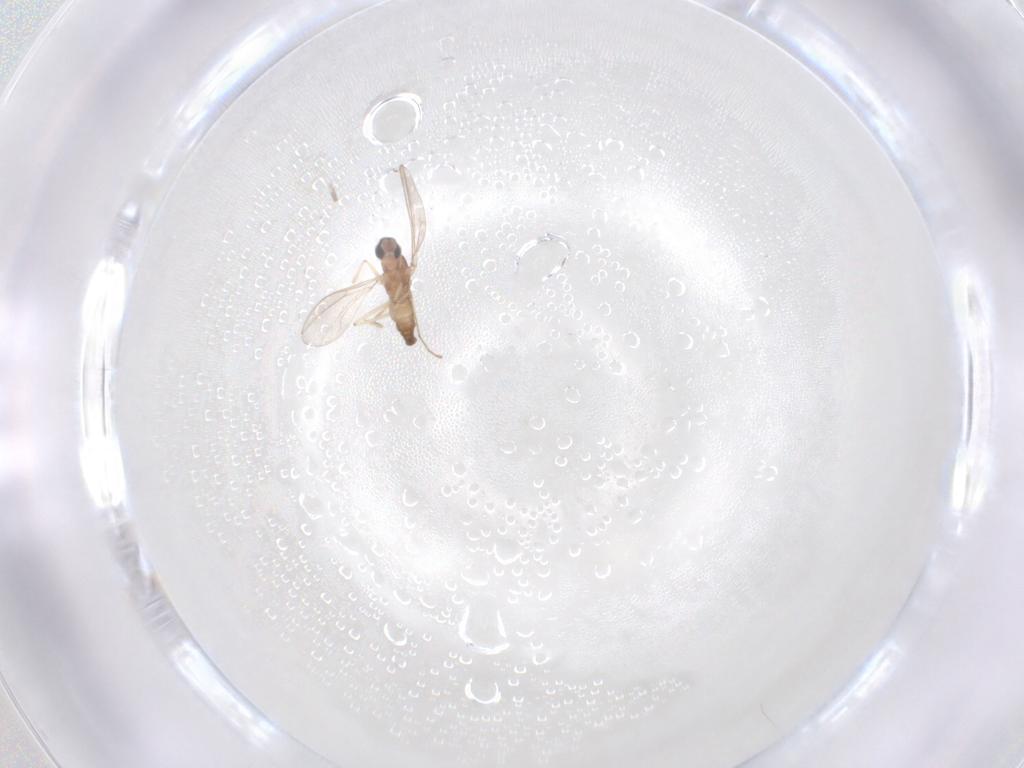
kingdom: Animalia
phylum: Arthropoda
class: Insecta
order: Diptera
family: Cecidomyiidae
